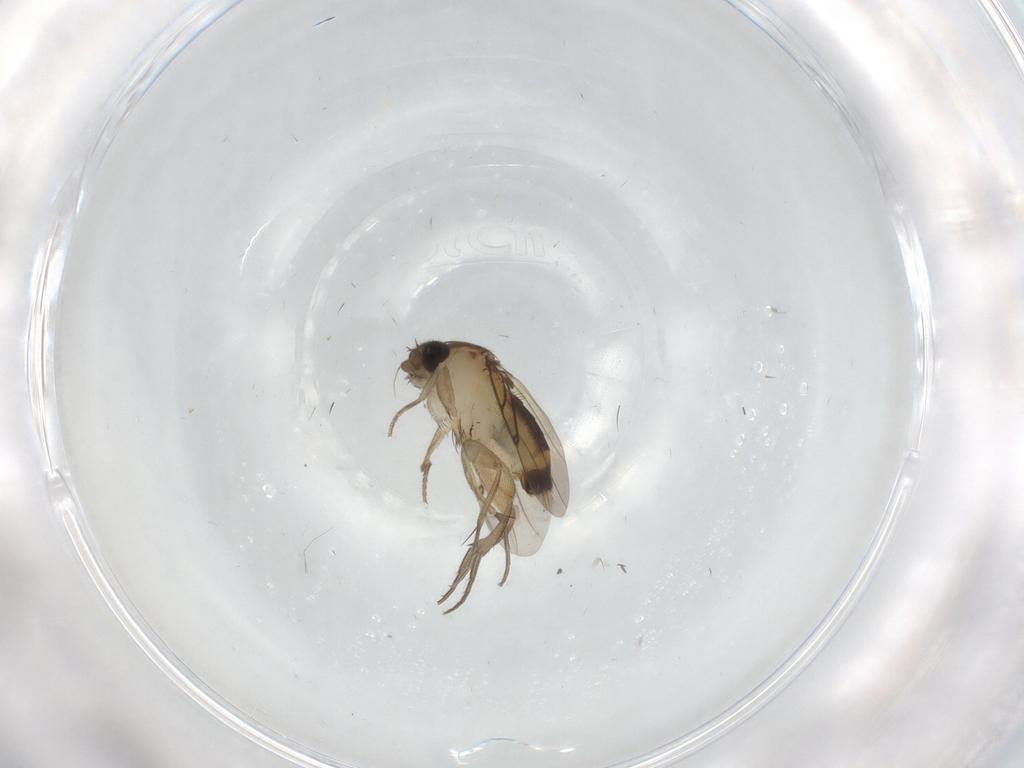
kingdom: Animalia
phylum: Arthropoda
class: Insecta
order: Diptera
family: Cecidomyiidae
